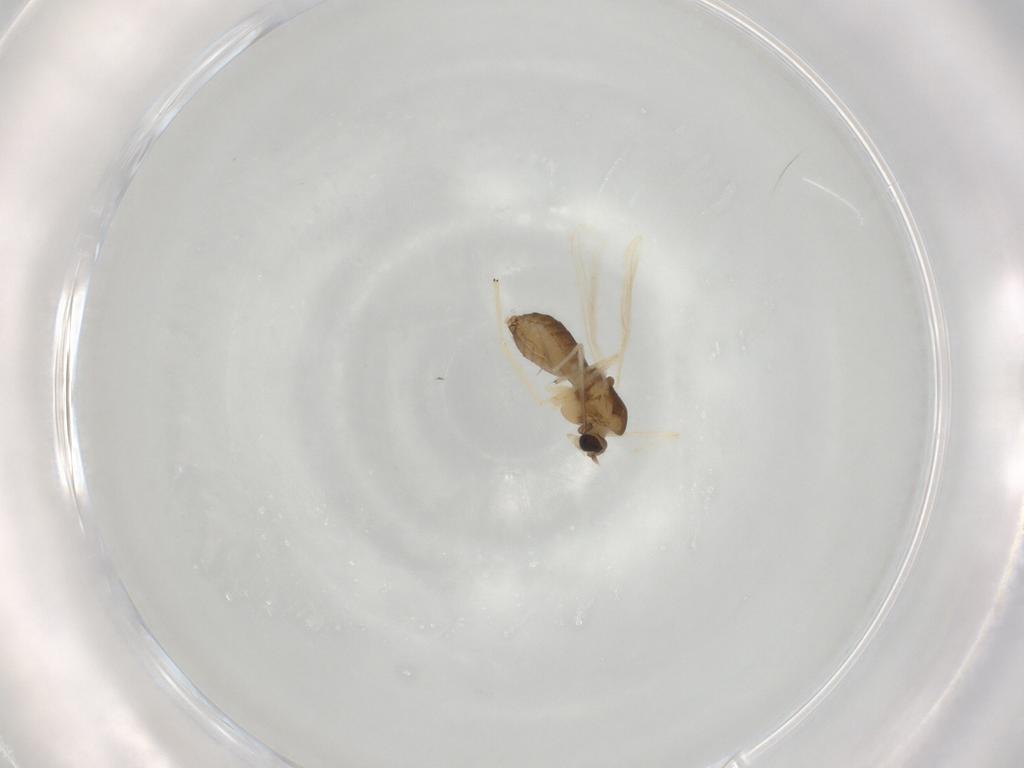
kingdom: Animalia
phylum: Arthropoda
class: Insecta
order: Diptera
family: Chironomidae
